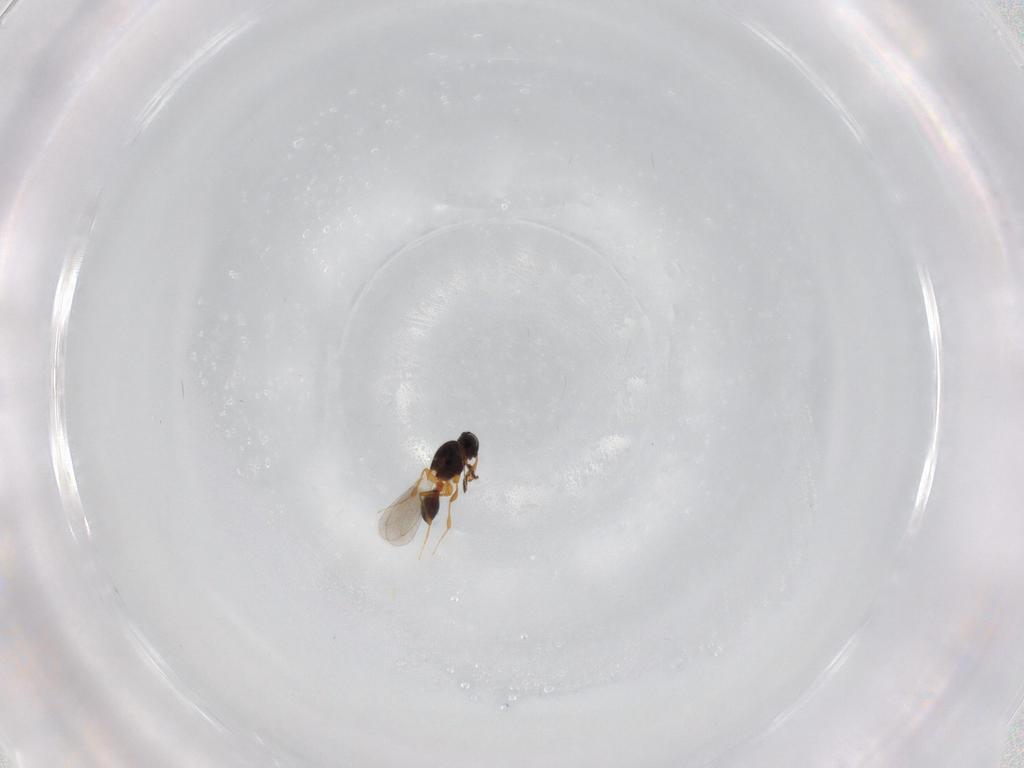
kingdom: Animalia
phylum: Arthropoda
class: Insecta
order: Hymenoptera
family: Platygastridae
